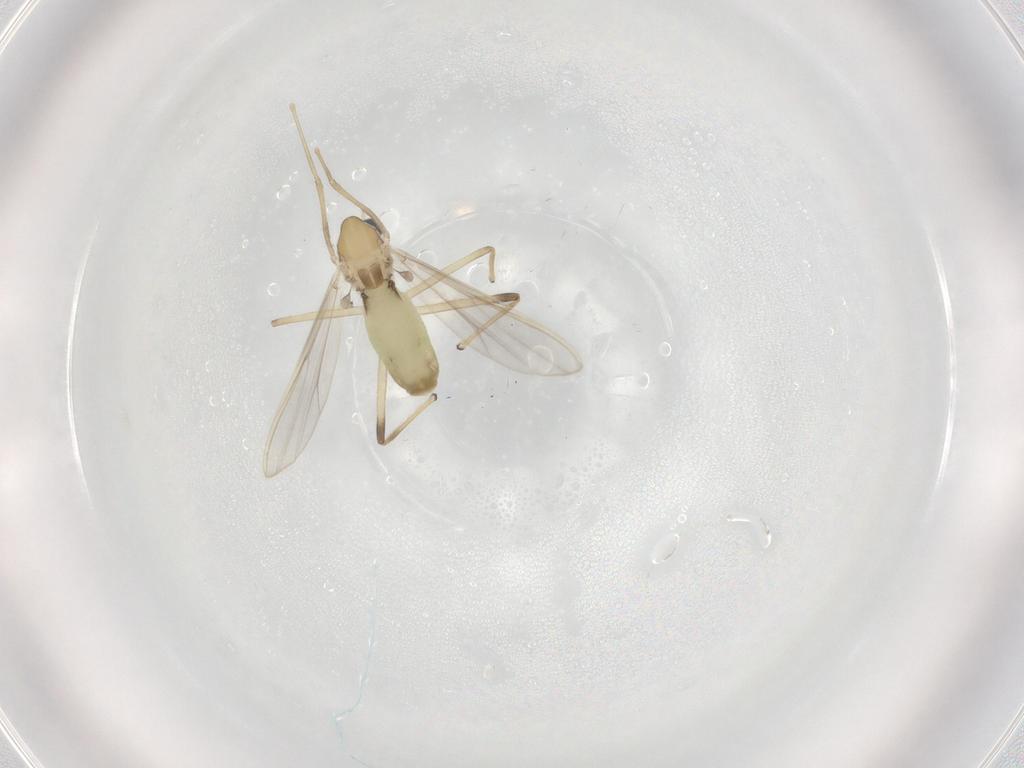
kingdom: Animalia
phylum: Arthropoda
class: Insecta
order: Diptera
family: Chironomidae
